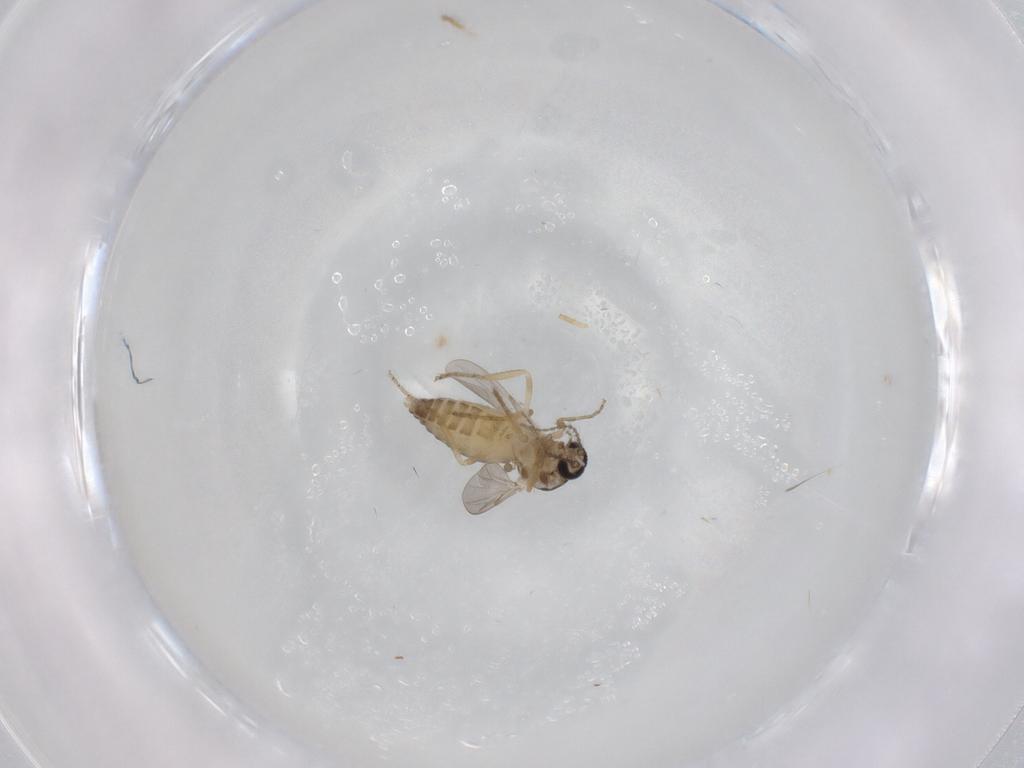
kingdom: Animalia
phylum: Arthropoda
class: Insecta
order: Diptera
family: Ceratopogonidae
